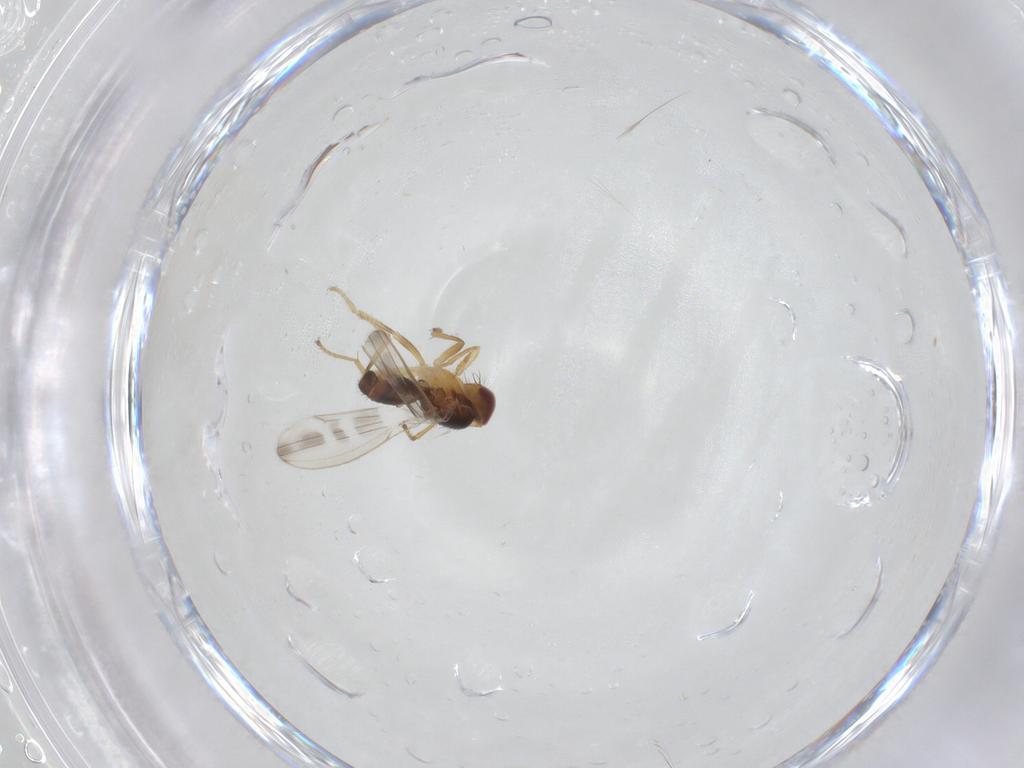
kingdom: Animalia
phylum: Arthropoda
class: Insecta
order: Diptera
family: Periscelididae
